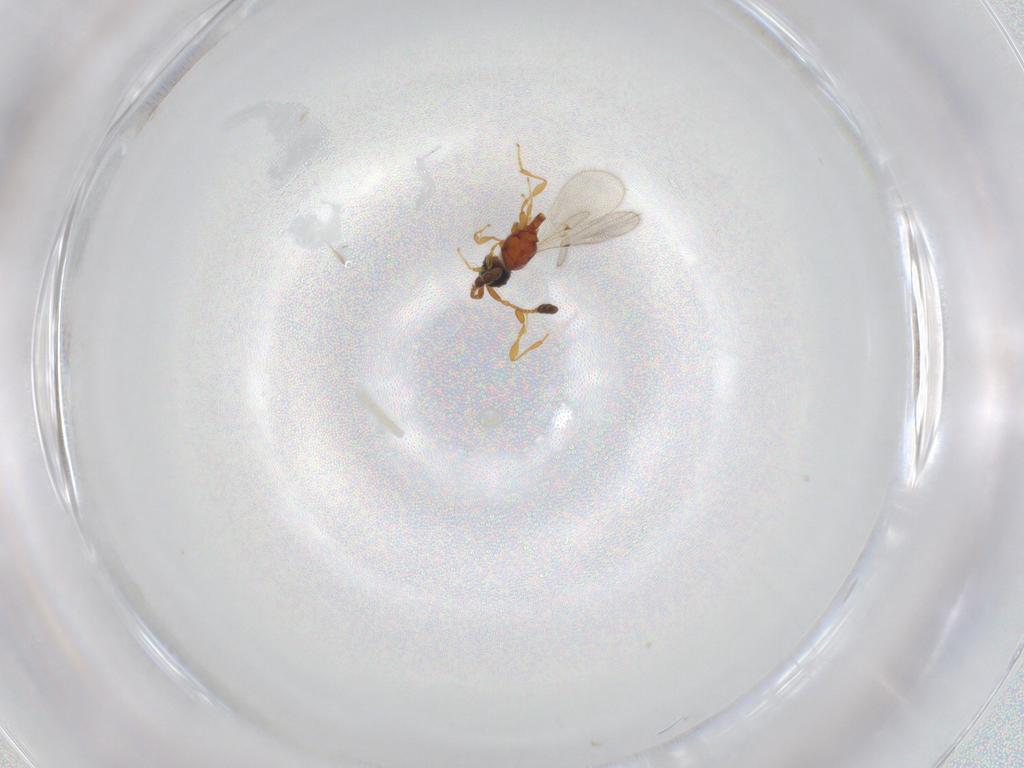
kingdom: Animalia
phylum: Arthropoda
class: Insecta
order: Hymenoptera
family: Diapriidae
